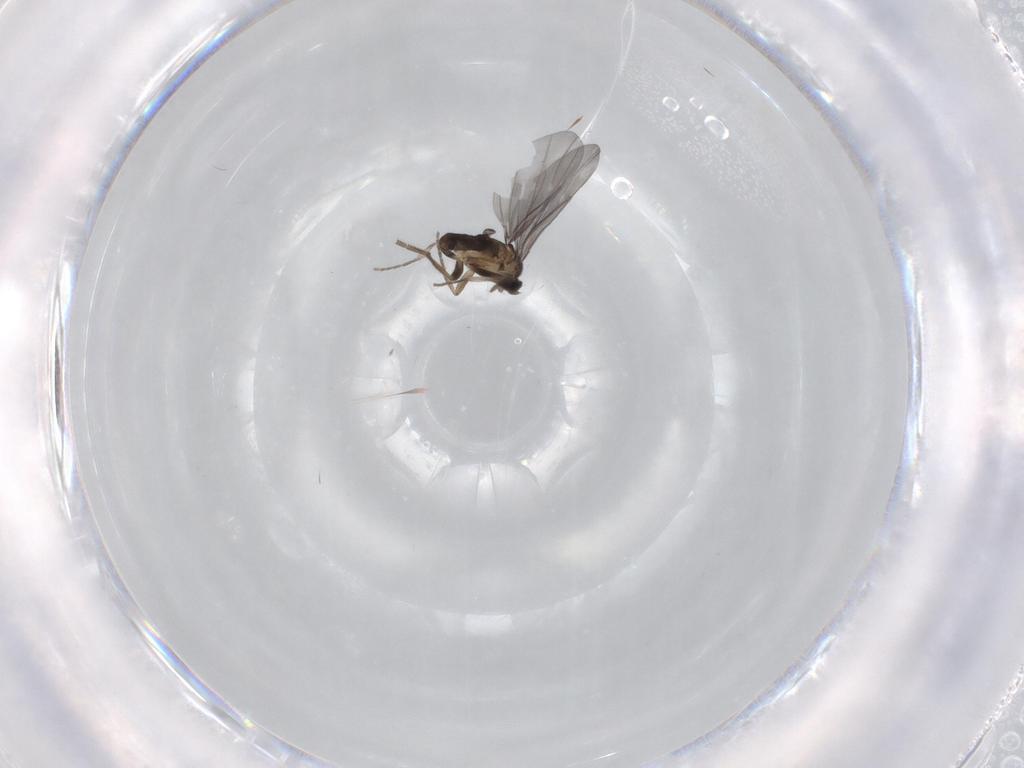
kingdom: Animalia
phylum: Arthropoda
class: Insecta
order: Diptera
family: Phoridae
